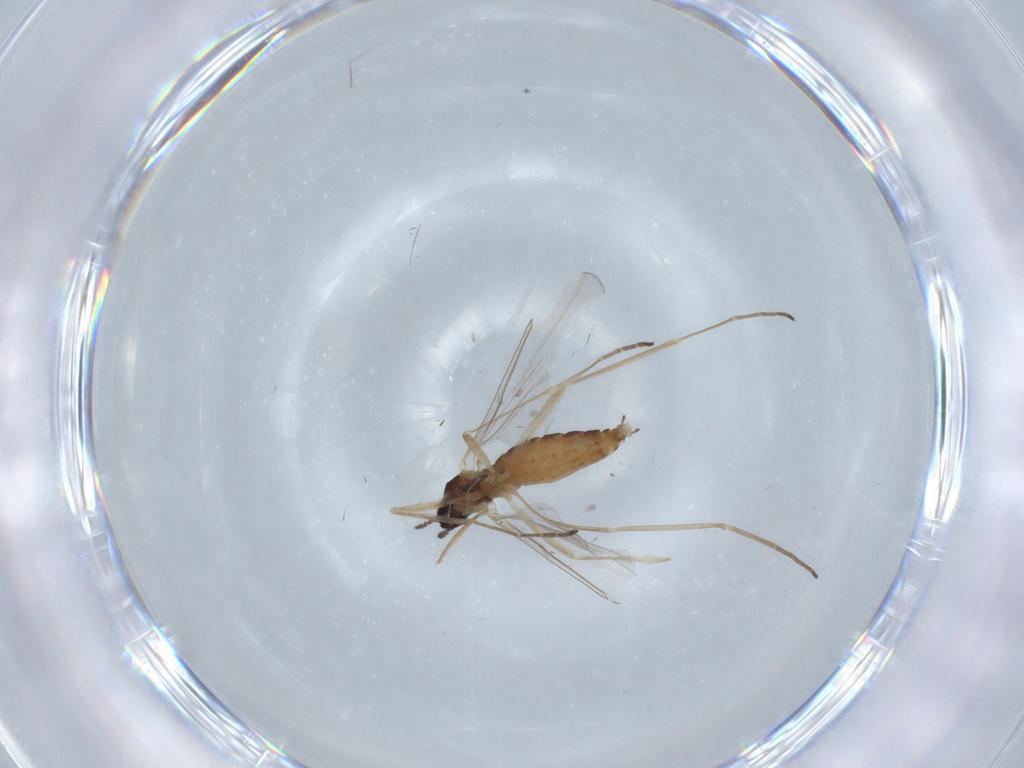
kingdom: Animalia
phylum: Arthropoda
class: Insecta
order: Diptera
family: Cecidomyiidae
